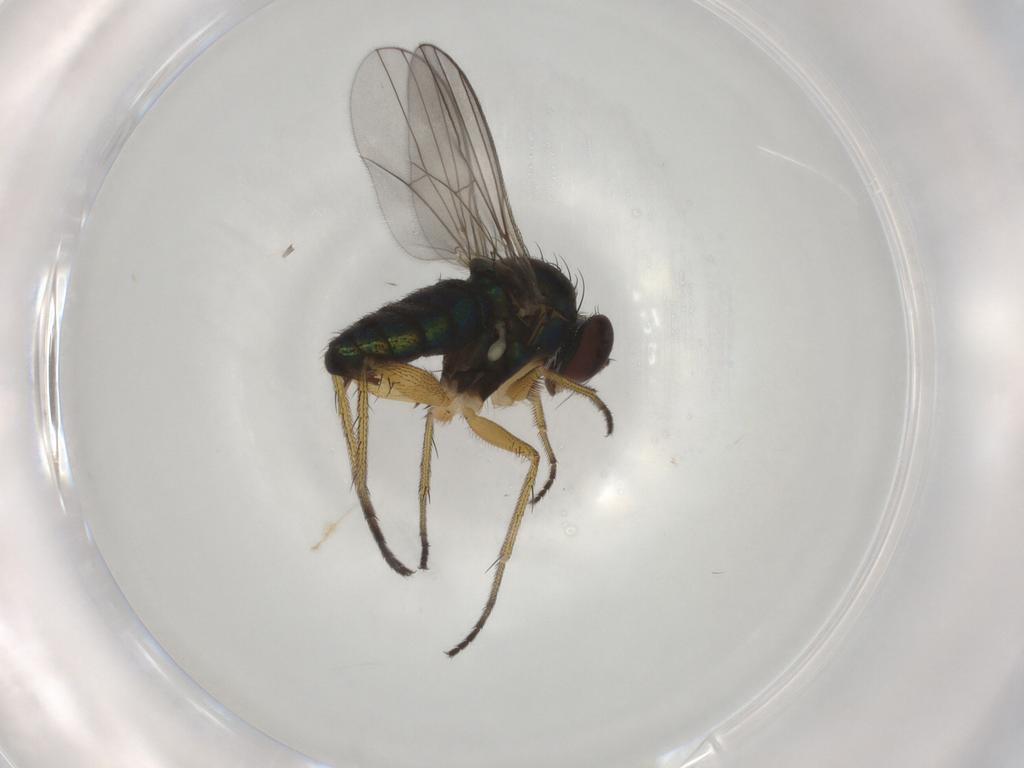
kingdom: Animalia
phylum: Arthropoda
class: Insecta
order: Diptera
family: Dolichopodidae
